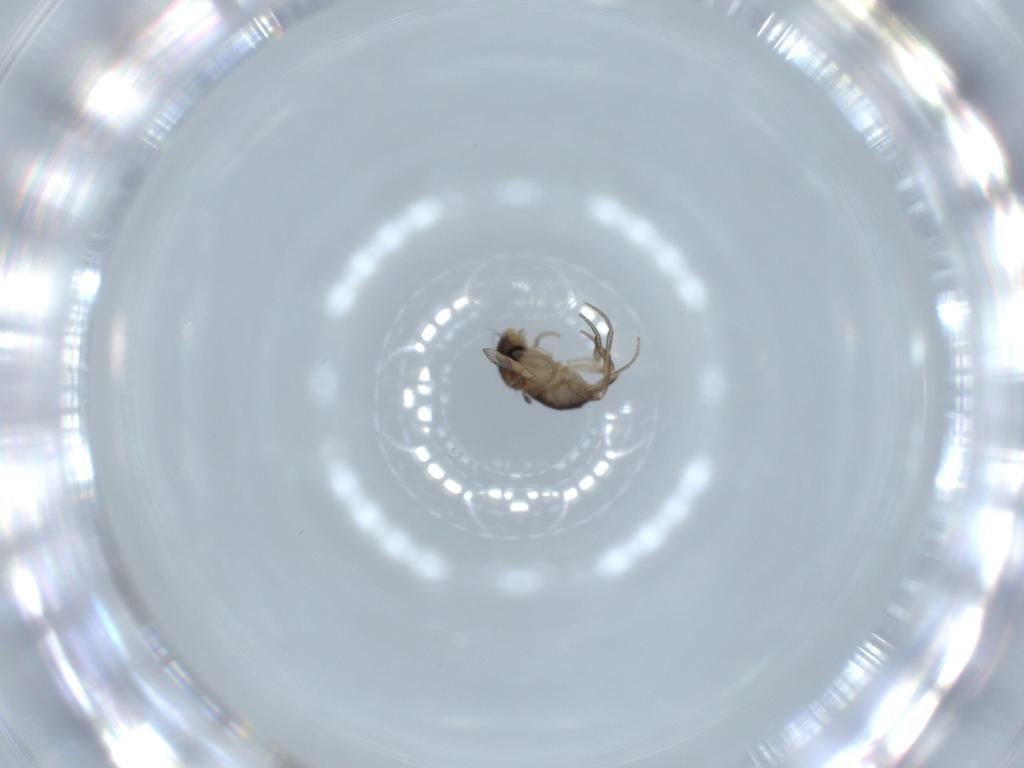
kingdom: Animalia
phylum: Arthropoda
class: Insecta
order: Diptera
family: Phoridae
